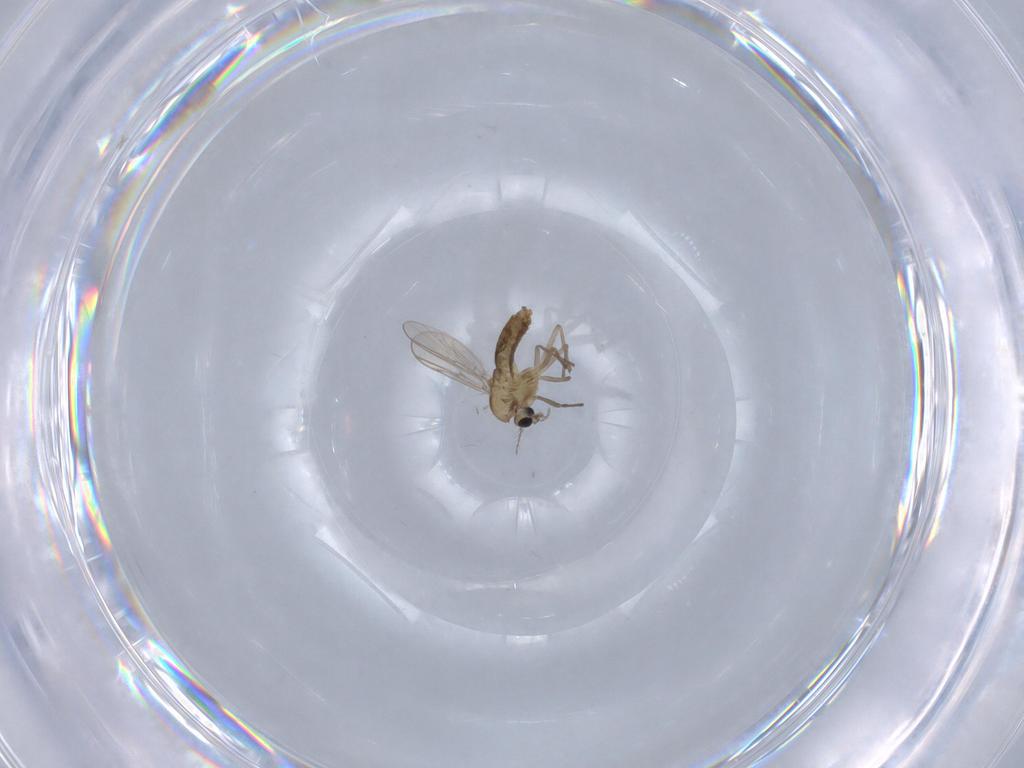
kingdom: Animalia
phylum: Arthropoda
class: Insecta
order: Diptera
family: Chironomidae
